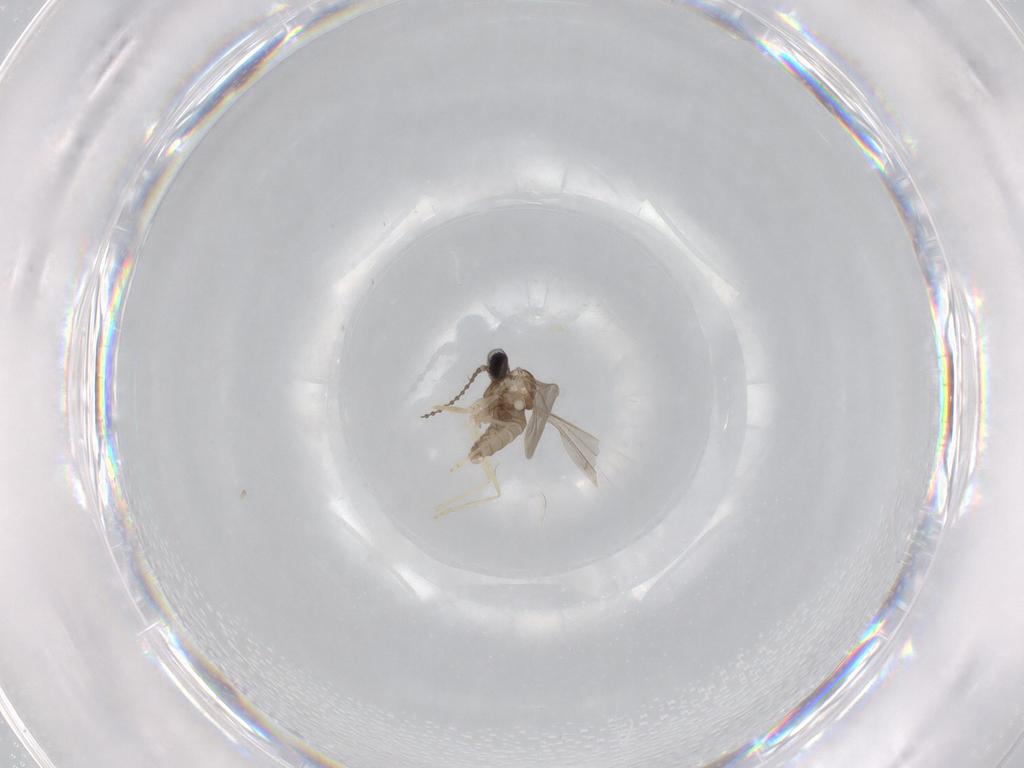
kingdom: Animalia
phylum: Arthropoda
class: Insecta
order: Diptera
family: Cecidomyiidae
